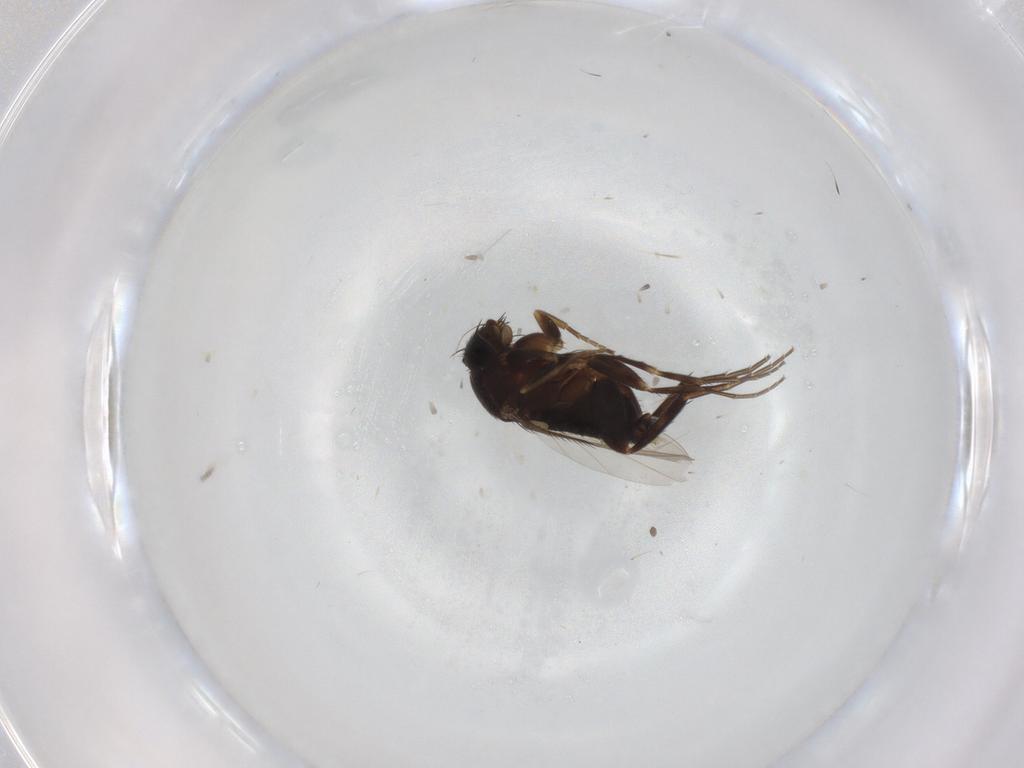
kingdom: Animalia
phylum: Arthropoda
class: Insecta
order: Diptera
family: Phoridae
